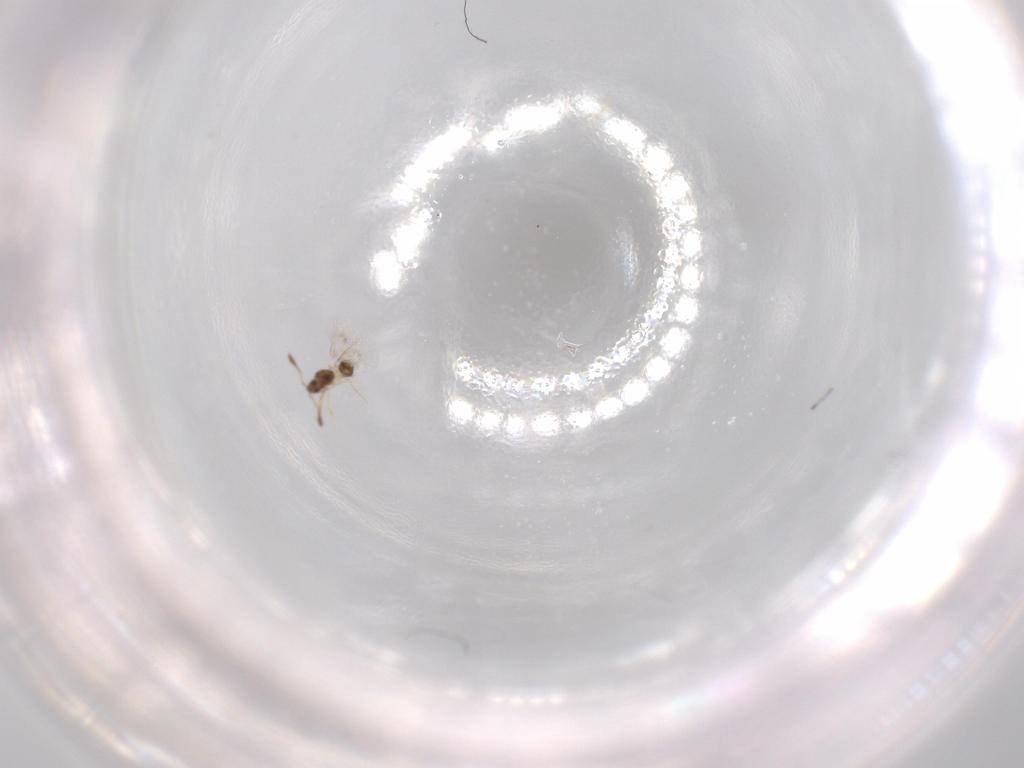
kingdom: Animalia
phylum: Arthropoda
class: Insecta
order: Hymenoptera
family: Mymarommatidae
